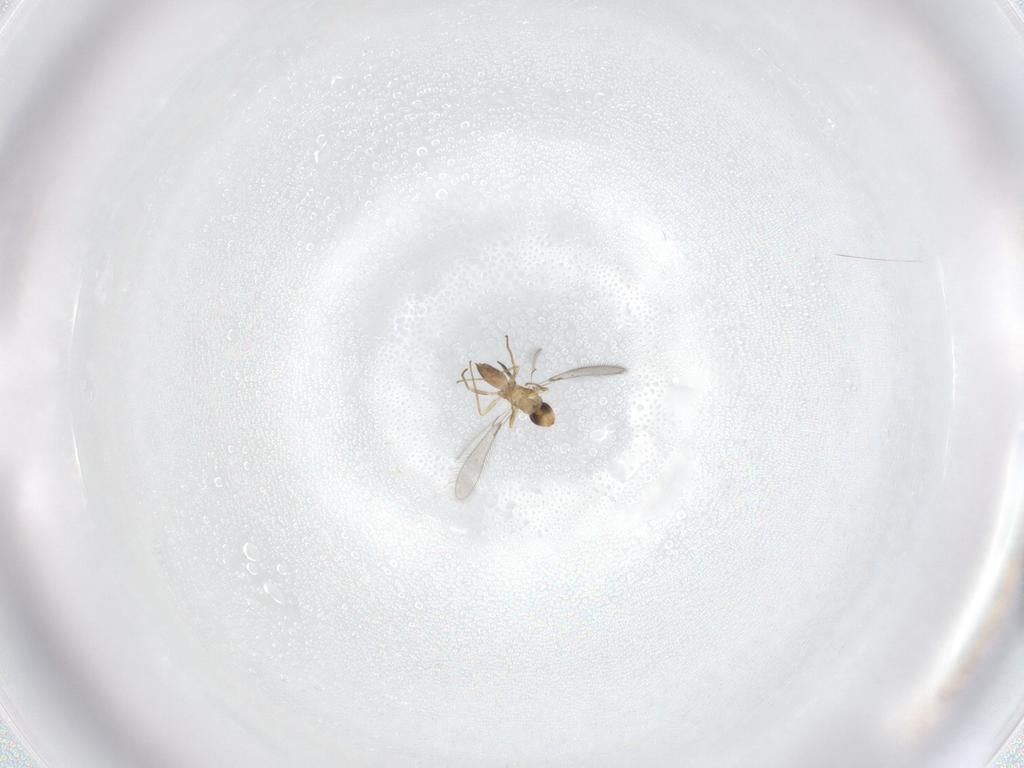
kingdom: Animalia
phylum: Arthropoda
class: Insecta
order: Hymenoptera
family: Mymaridae
